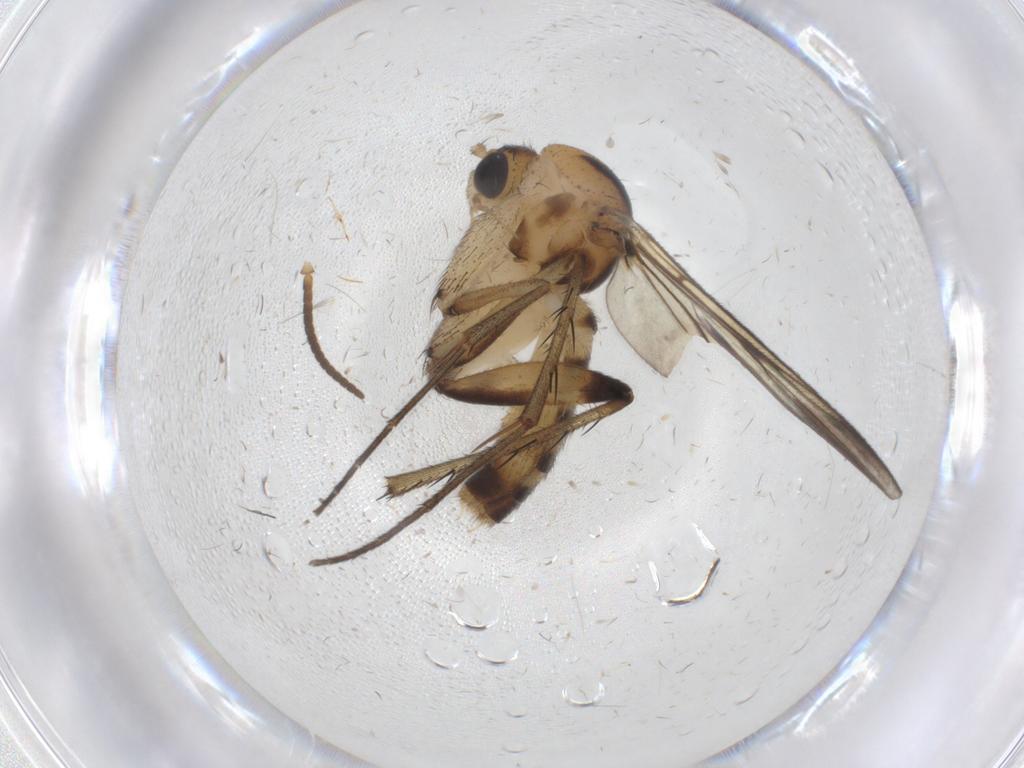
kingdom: Animalia
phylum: Arthropoda
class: Insecta
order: Diptera
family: Mycetophilidae
